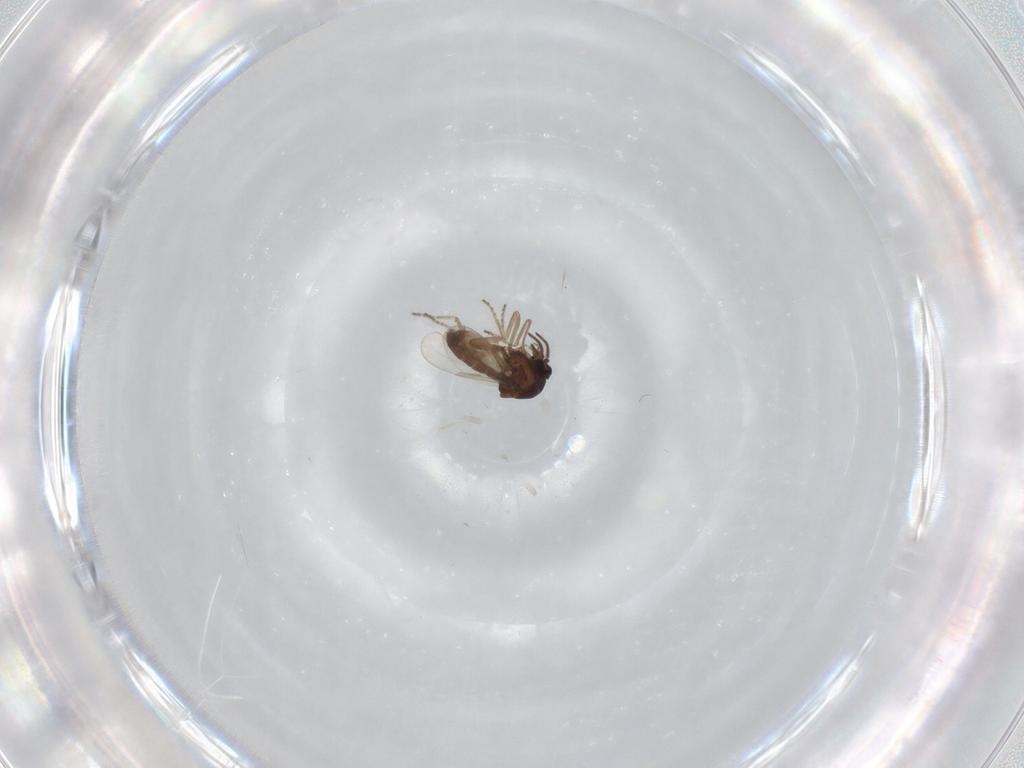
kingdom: Animalia
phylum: Arthropoda
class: Insecta
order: Diptera
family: Ceratopogonidae
